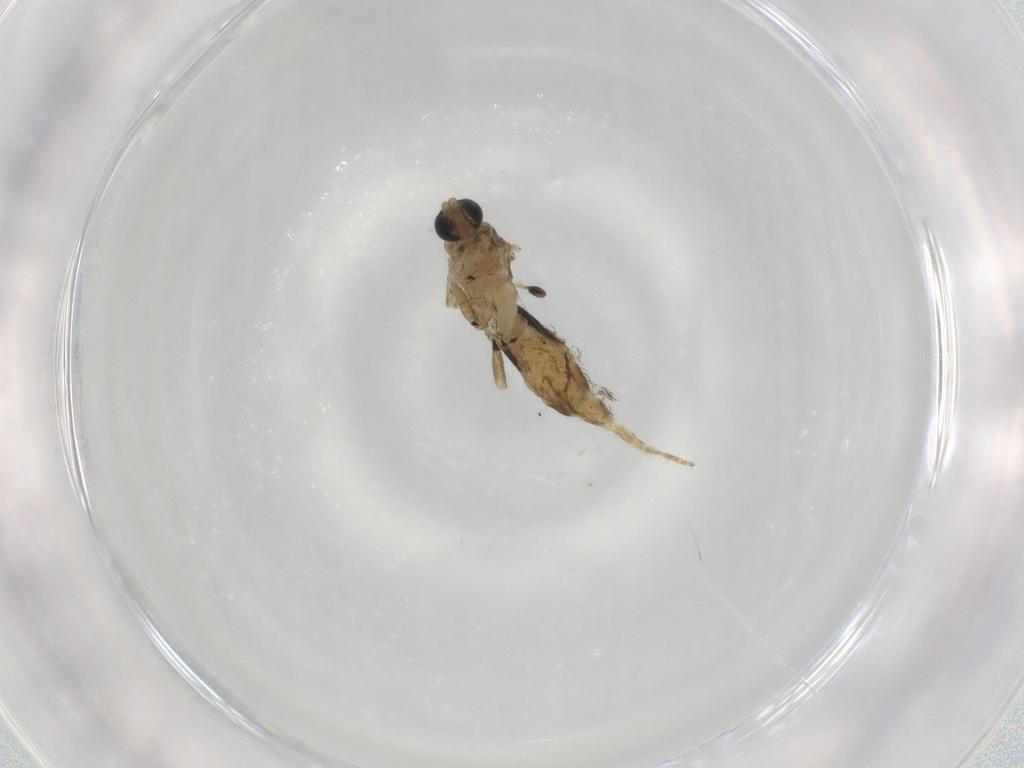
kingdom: Animalia
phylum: Arthropoda
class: Insecta
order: Diptera
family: Sciaridae
